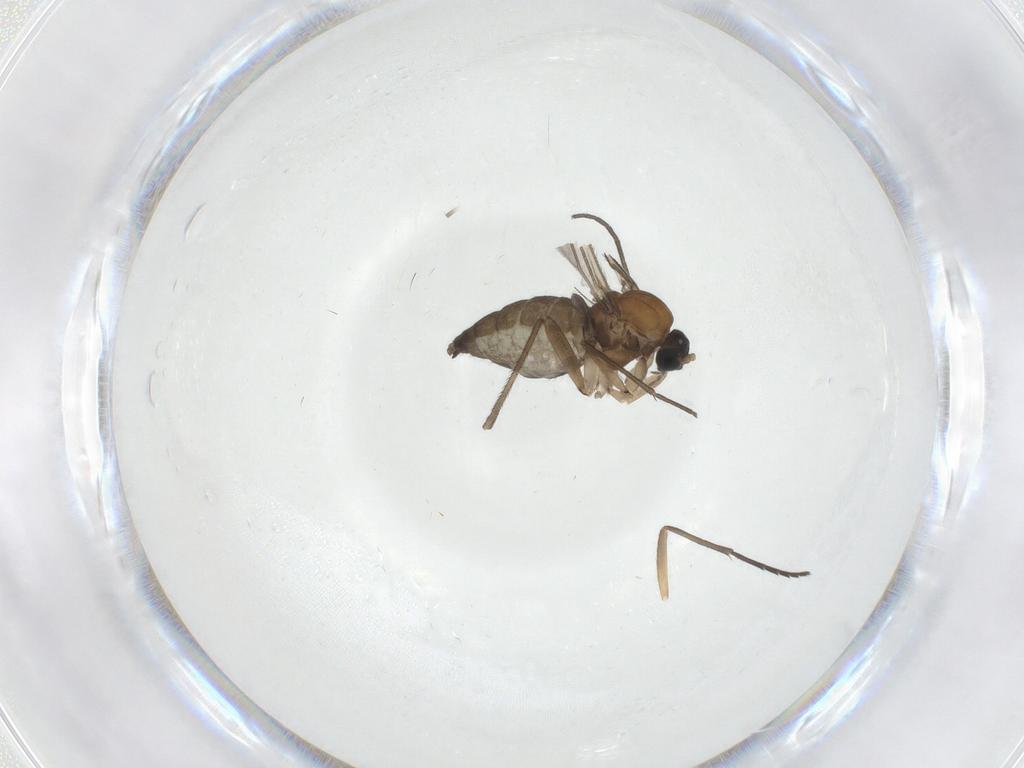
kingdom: Animalia
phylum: Arthropoda
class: Insecta
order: Diptera
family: Sciaridae
